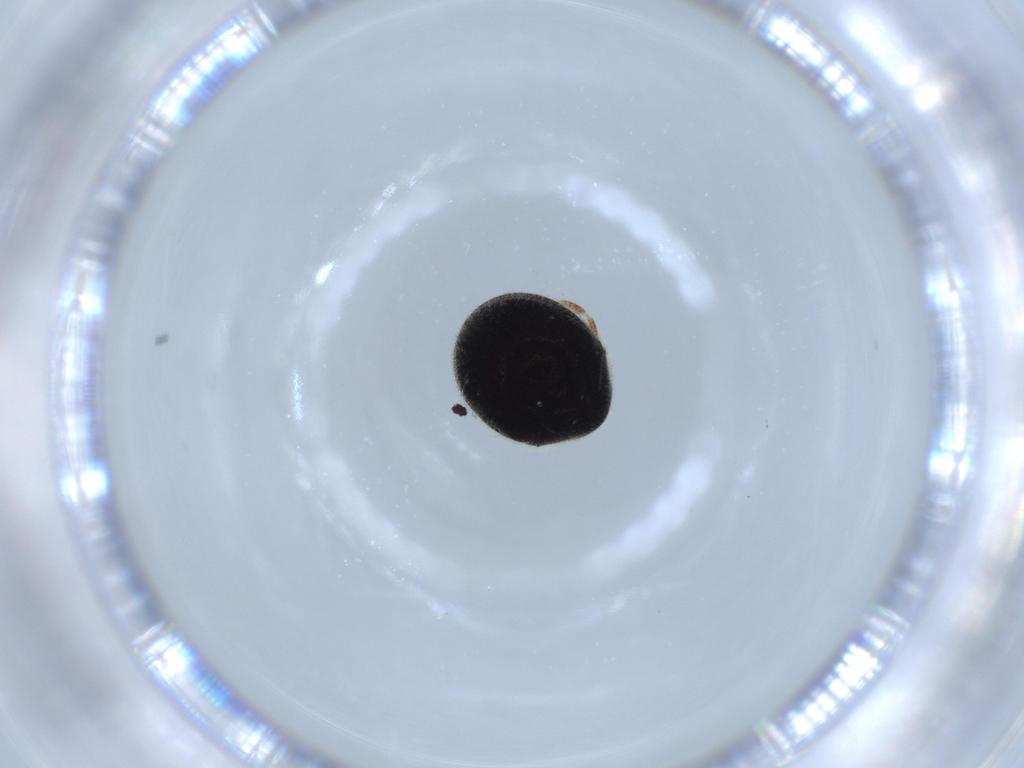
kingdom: Animalia
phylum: Arthropoda
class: Insecta
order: Coleoptera
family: Ptinidae
